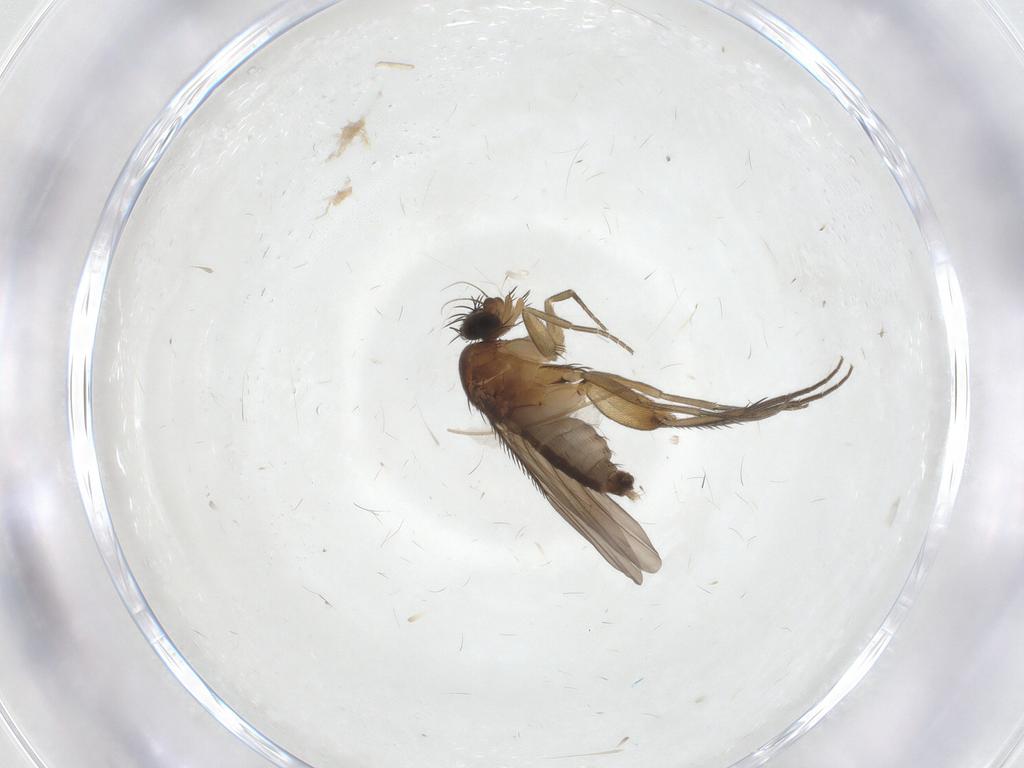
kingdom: Animalia
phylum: Arthropoda
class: Insecta
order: Diptera
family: Phoridae
